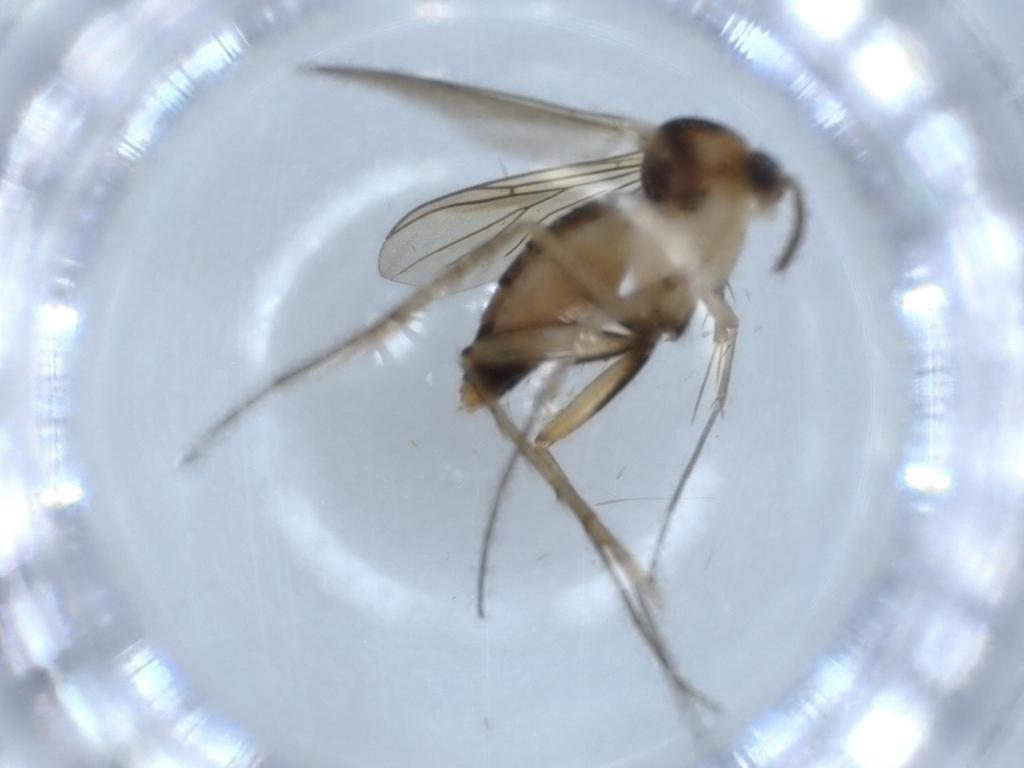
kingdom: Animalia
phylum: Arthropoda
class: Insecta
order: Diptera
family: Mycetophilidae
